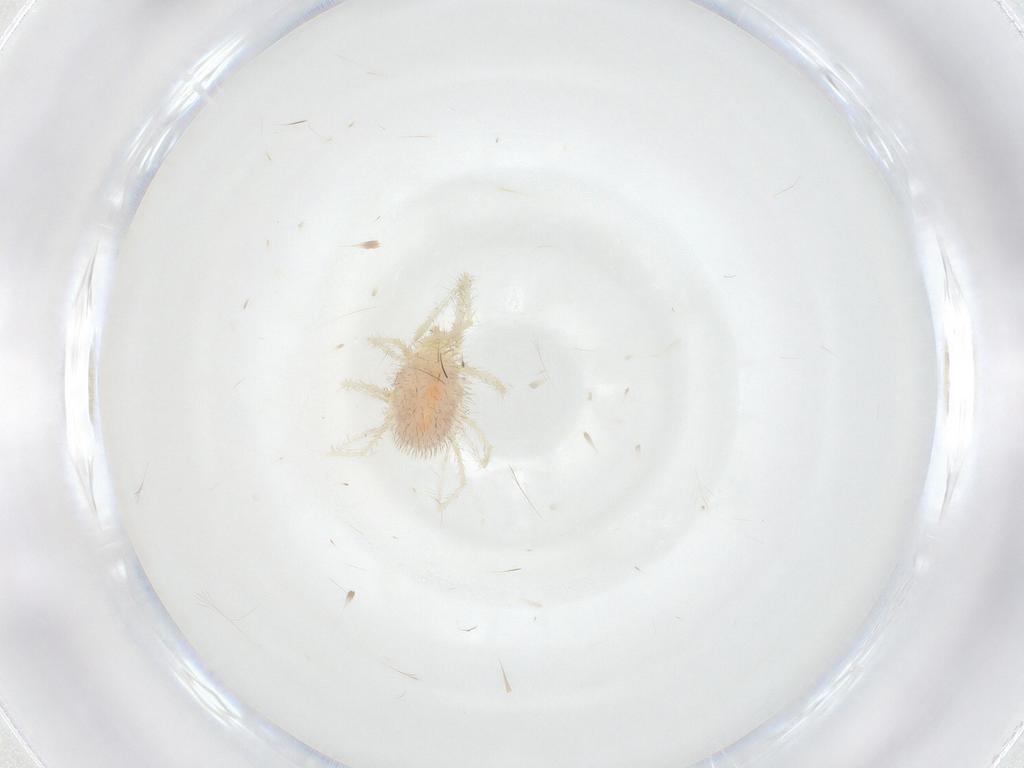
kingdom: Animalia
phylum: Arthropoda
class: Arachnida
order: Trombidiformes
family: Erythraeidae
